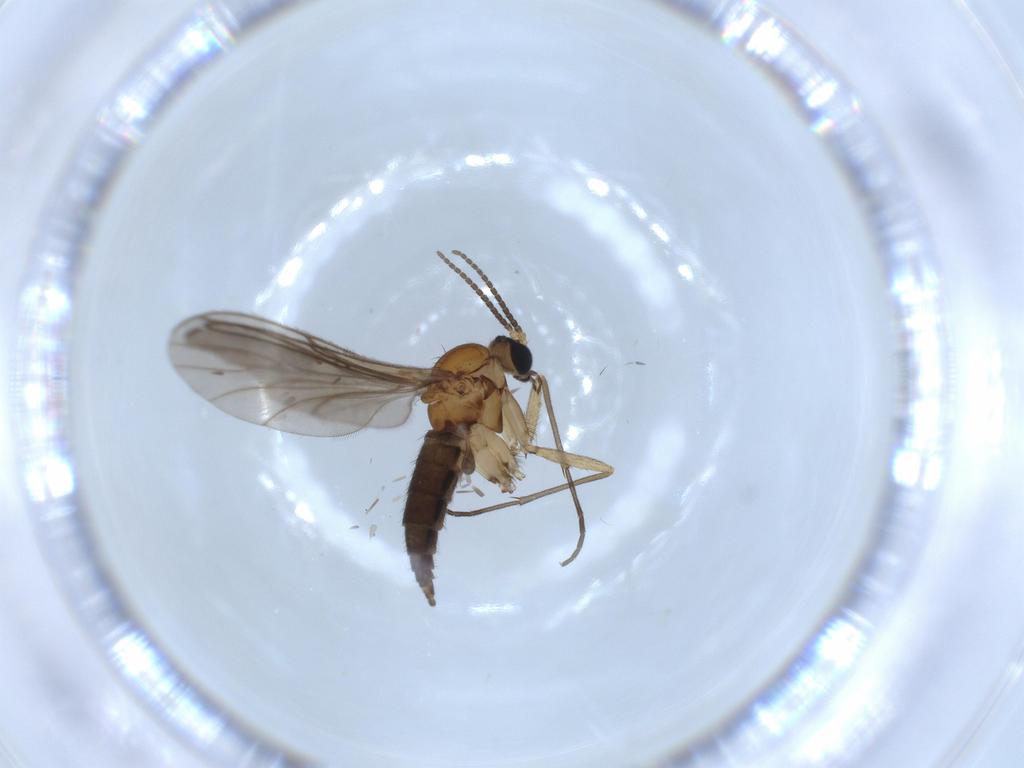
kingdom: Animalia
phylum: Arthropoda
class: Insecta
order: Diptera
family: Sciaridae
